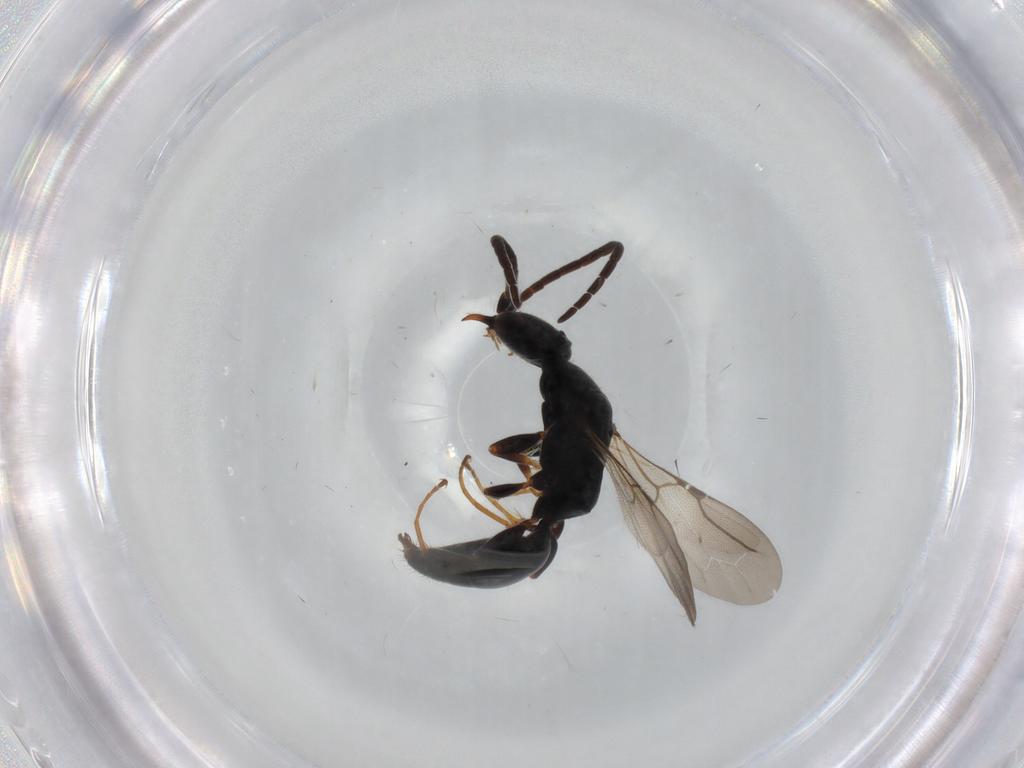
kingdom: Animalia
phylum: Arthropoda
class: Insecta
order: Hymenoptera
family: Bethylidae
